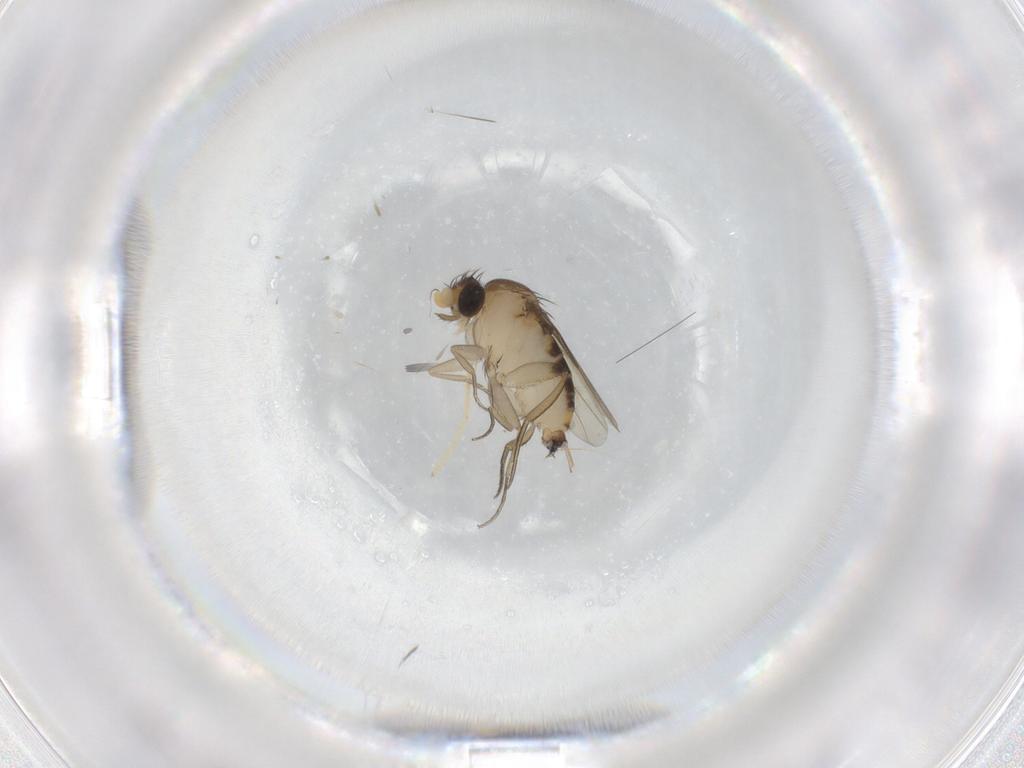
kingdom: Animalia
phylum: Arthropoda
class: Insecta
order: Diptera
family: Phoridae
